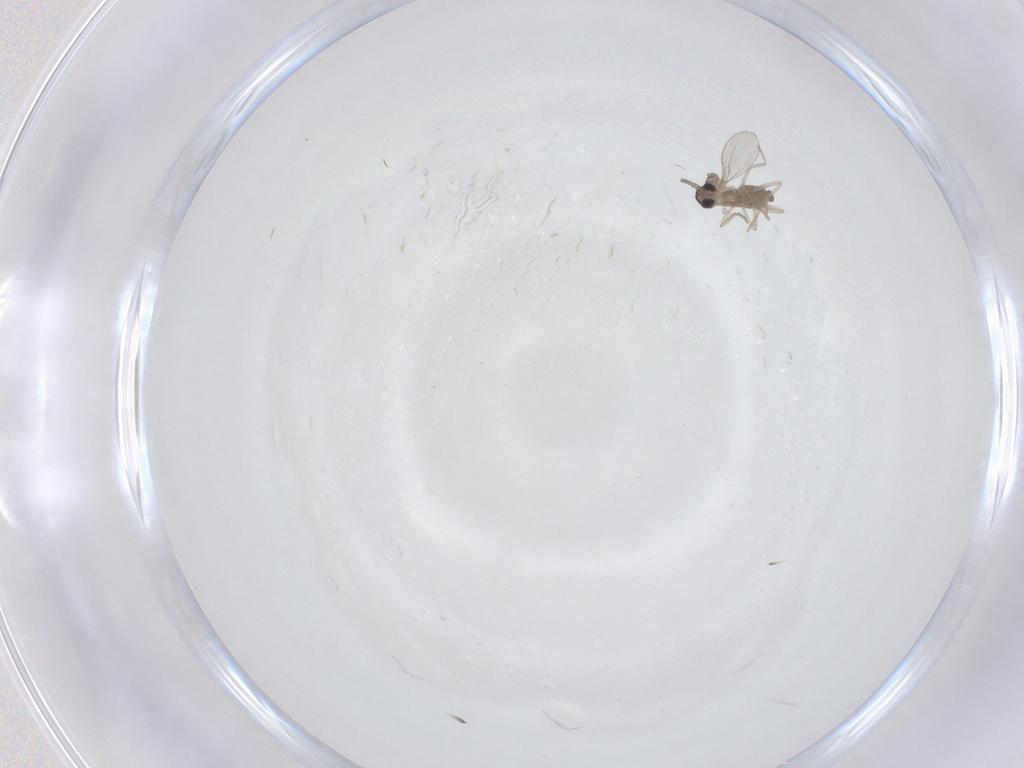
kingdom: Animalia
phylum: Arthropoda
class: Insecta
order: Diptera
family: Cecidomyiidae
